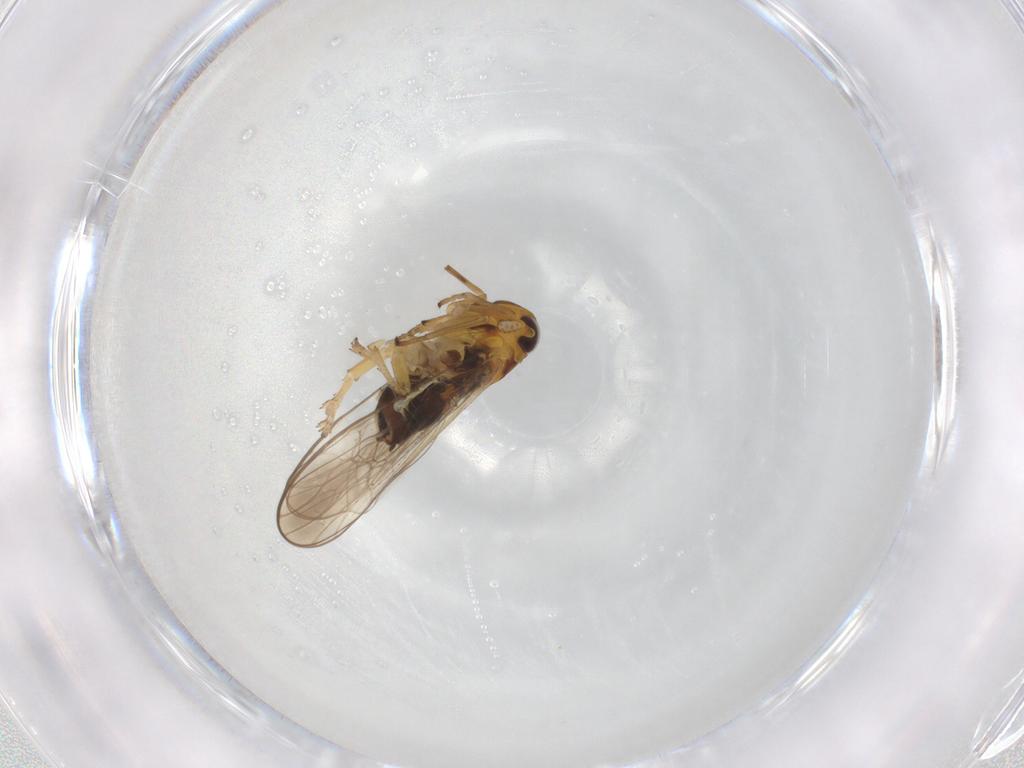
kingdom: Animalia
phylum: Arthropoda
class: Insecta
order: Hemiptera
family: Delphacidae
